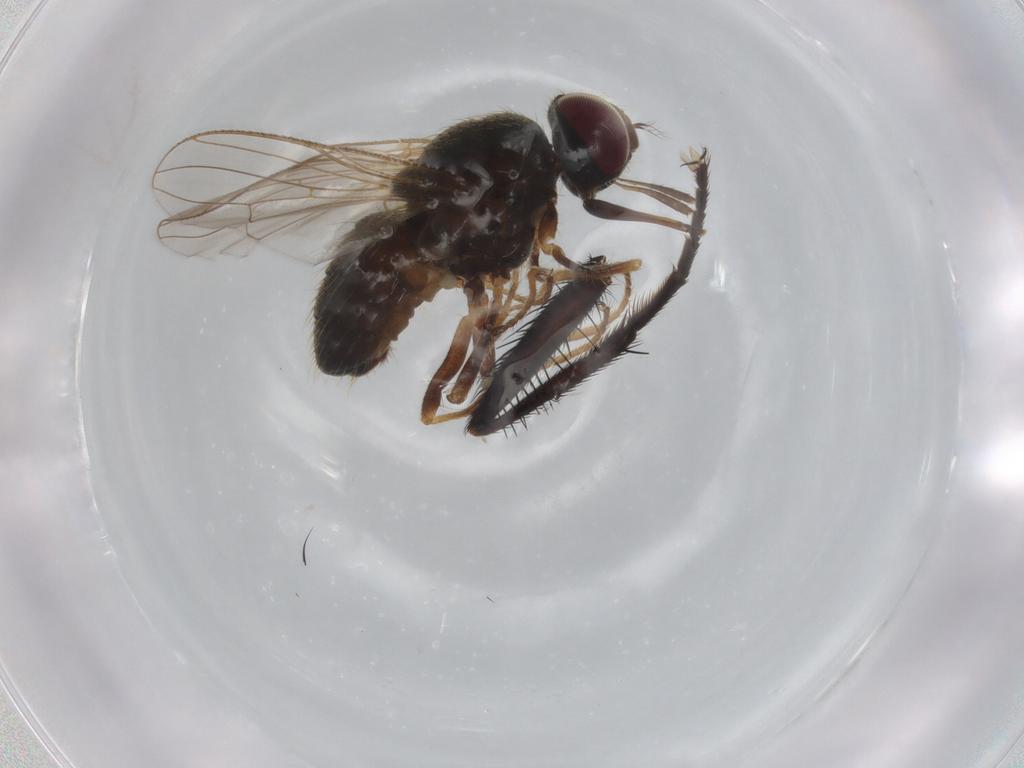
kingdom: Animalia
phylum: Arthropoda
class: Insecta
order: Diptera
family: Muscidae
